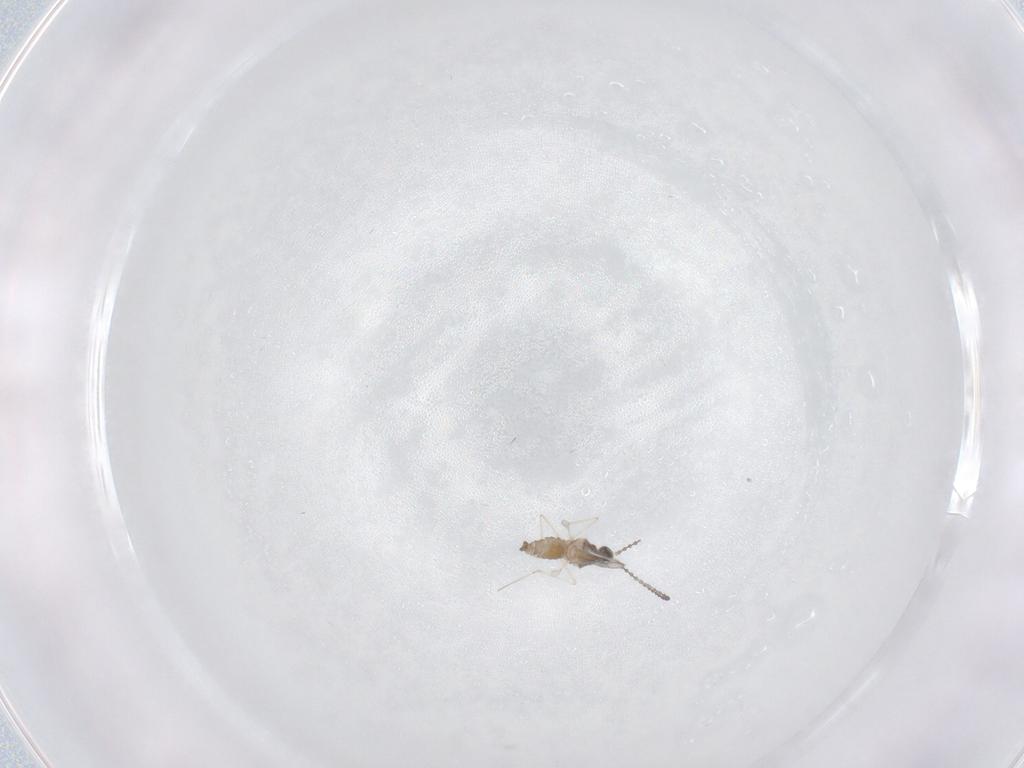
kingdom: Animalia
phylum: Arthropoda
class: Insecta
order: Diptera
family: Cecidomyiidae
